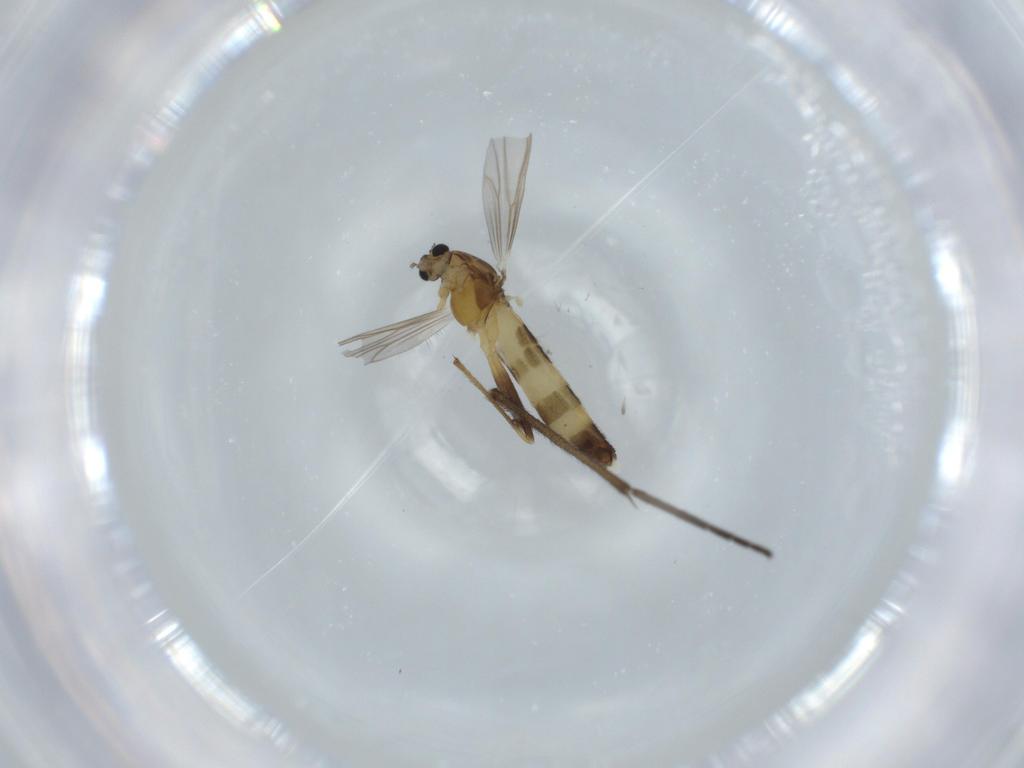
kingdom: Animalia
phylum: Arthropoda
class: Insecta
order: Diptera
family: Chironomidae
